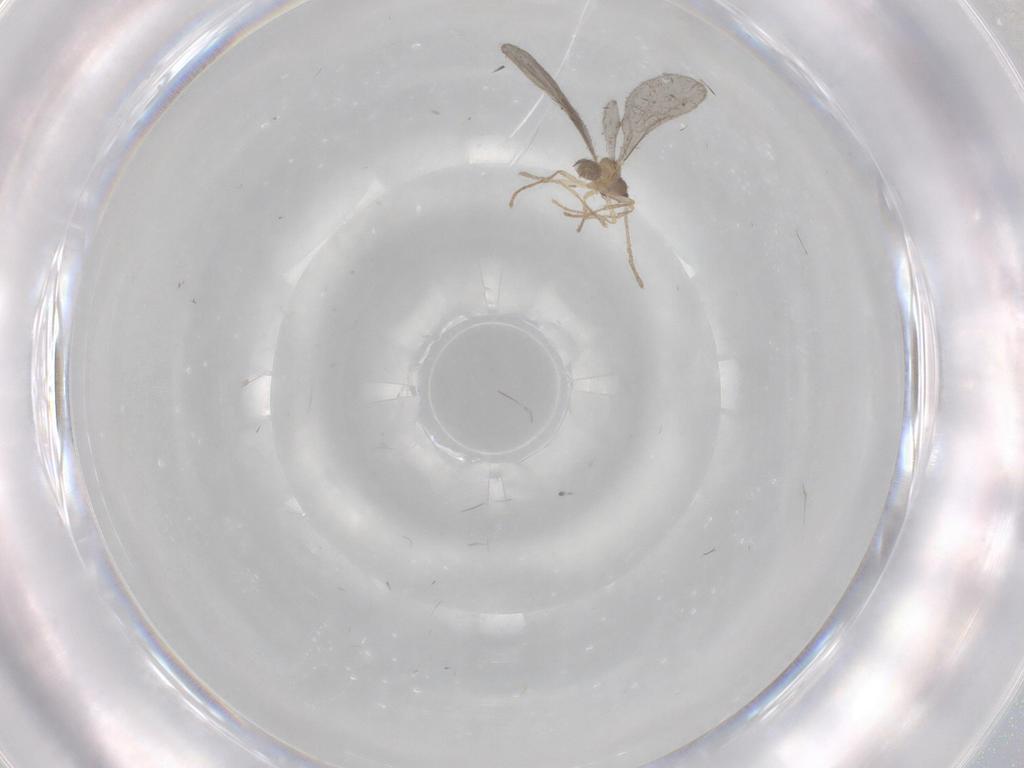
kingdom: Animalia
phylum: Arthropoda
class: Insecta
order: Hymenoptera
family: Formicidae
